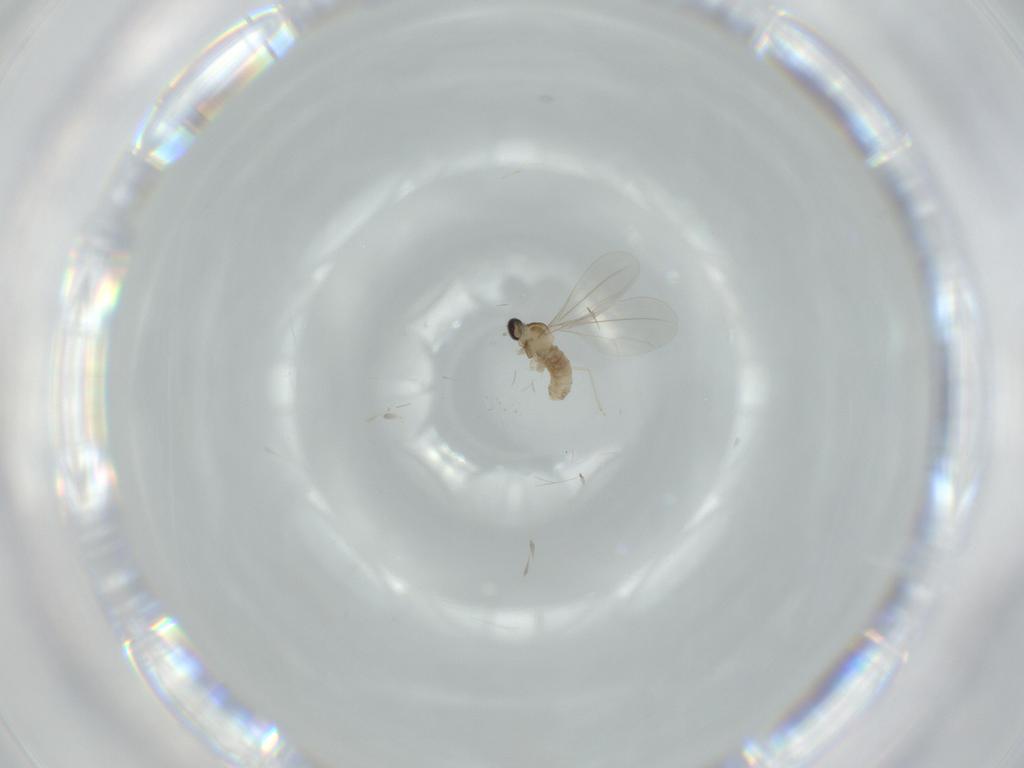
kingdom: Animalia
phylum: Arthropoda
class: Insecta
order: Diptera
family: Cecidomyiidae
